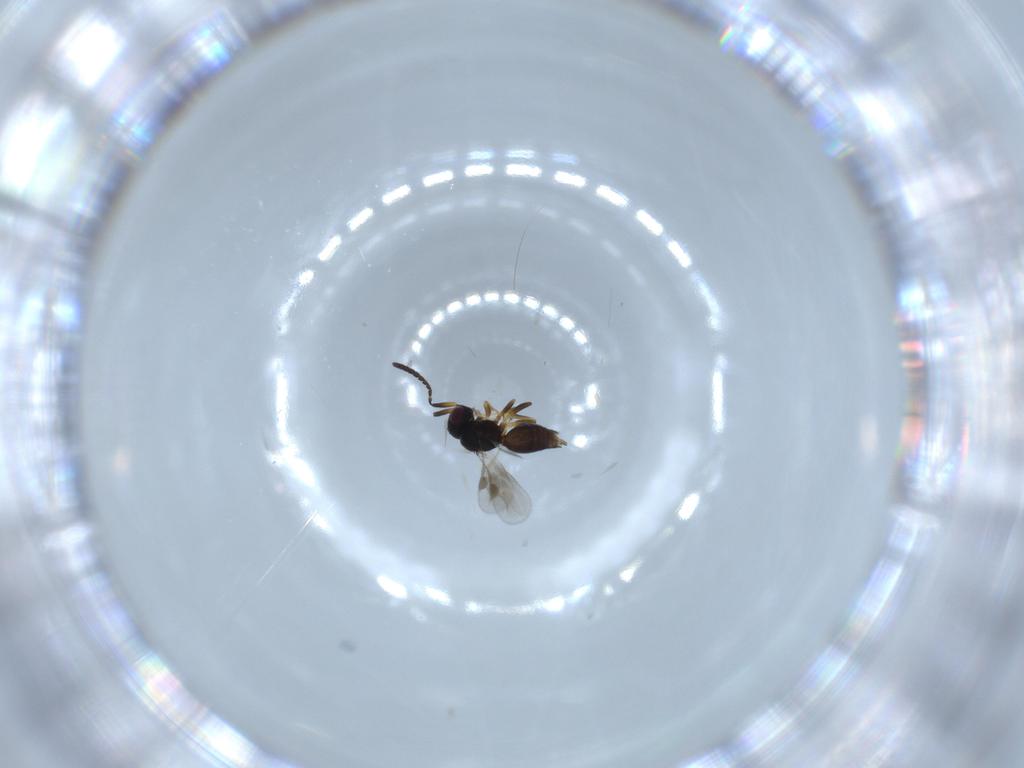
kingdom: Animalia
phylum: Arthropoda
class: Insecta
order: Hymenoptera
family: Megaspilidae
